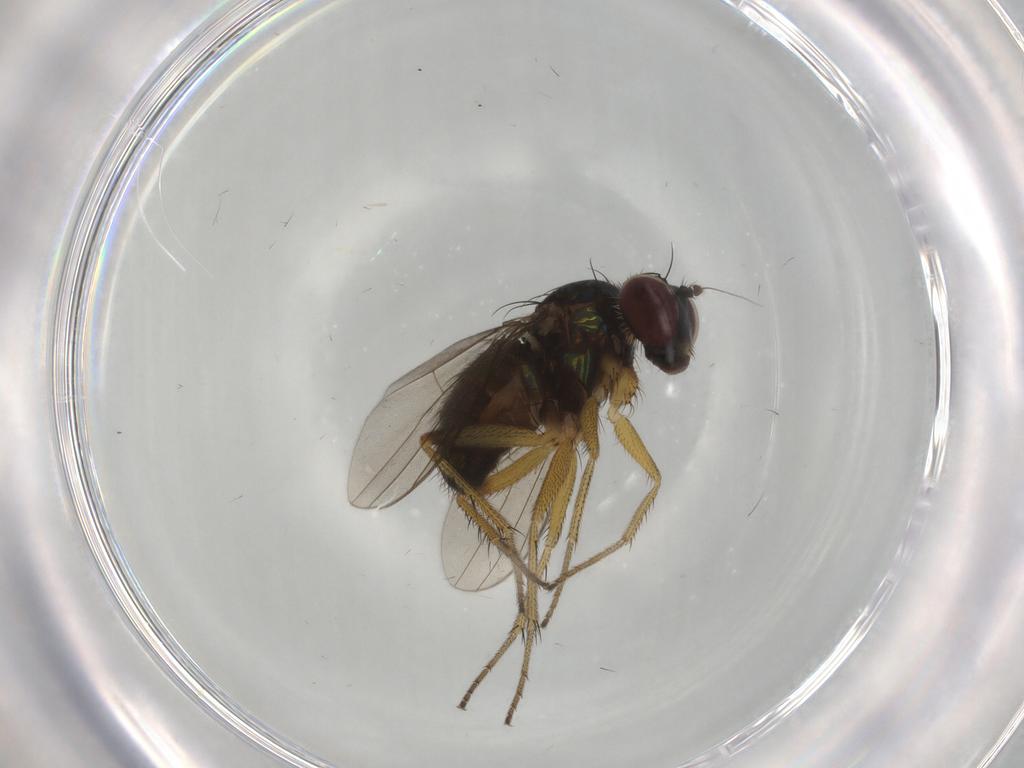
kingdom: Animalia
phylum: Arthropoda
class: Insecta
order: Diptera
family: Dolichopodidae
